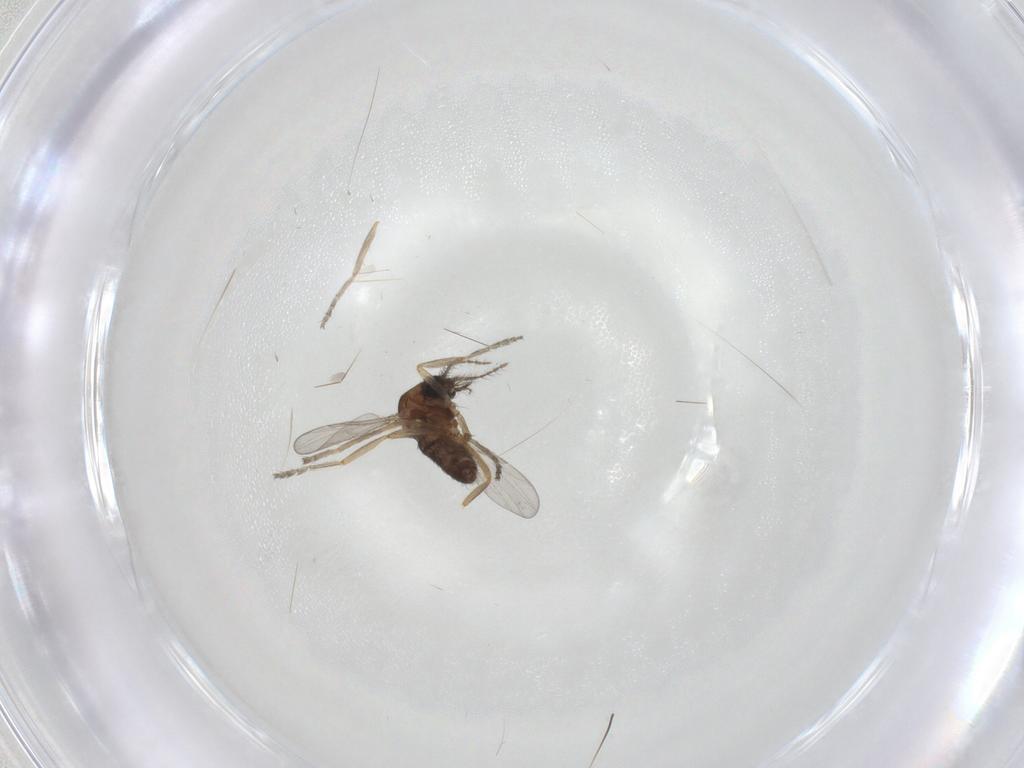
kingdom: Animalia
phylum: Arthropoda
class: Insecta
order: Diptera
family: Ceratopogonidae
